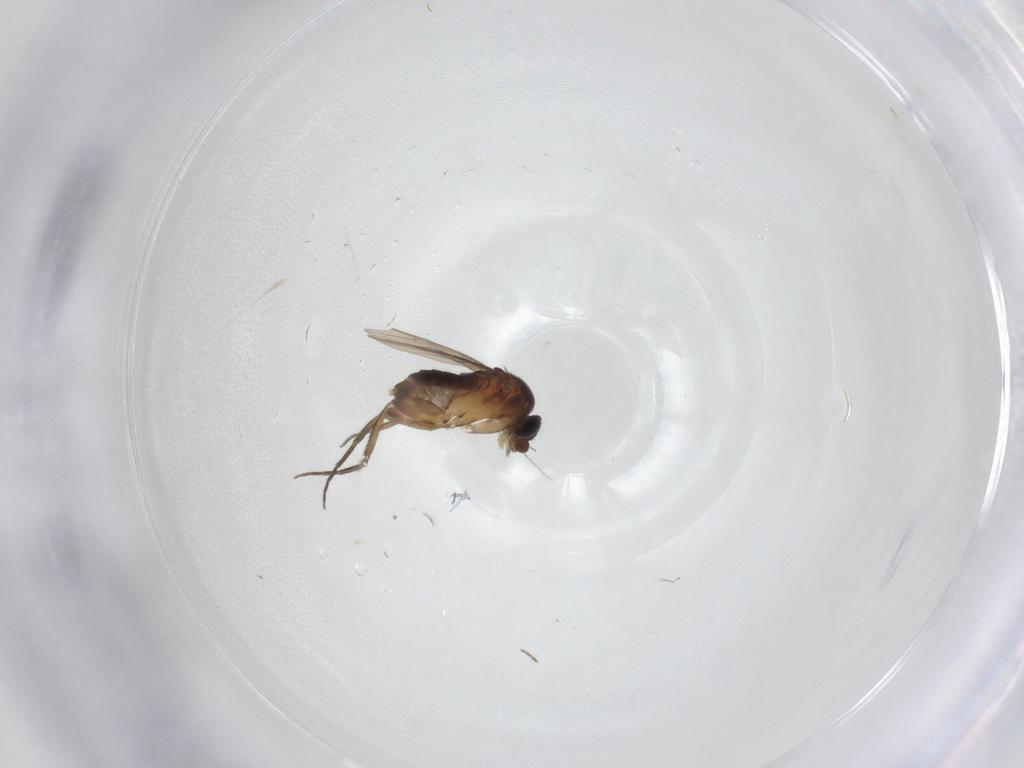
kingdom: Animalia
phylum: Arthropoda
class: Insecta
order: Diptera
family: Phoridae
